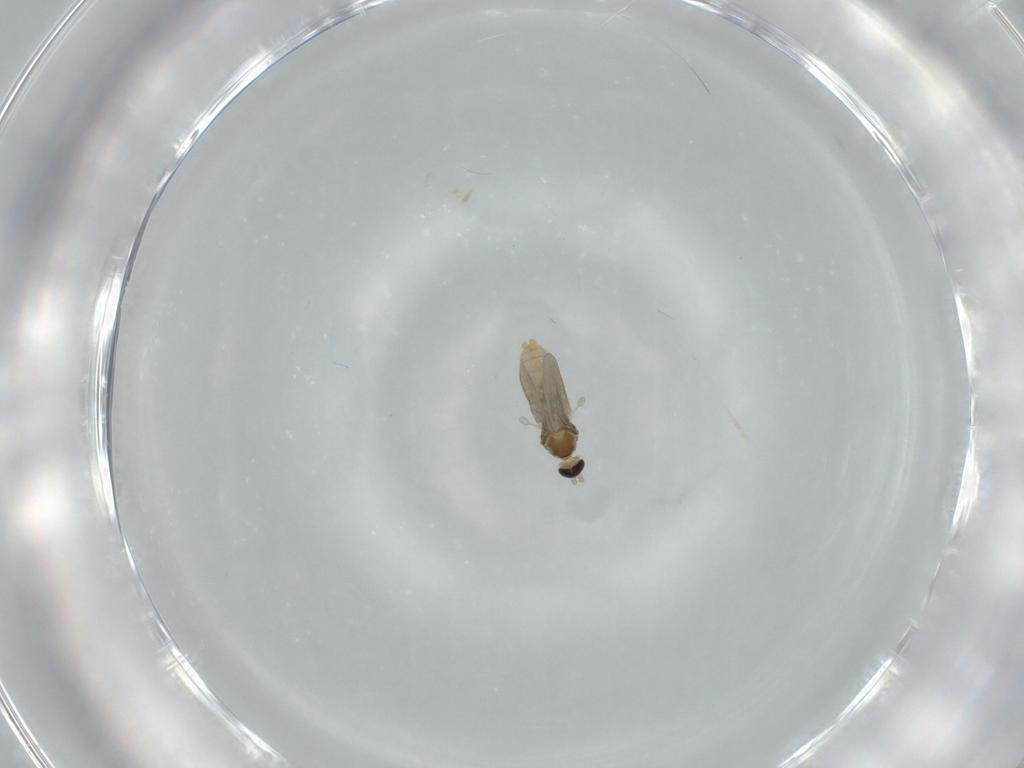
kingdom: Animalia
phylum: Arthropoda
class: Insecta
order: Diptera
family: Cecidomyiidae
